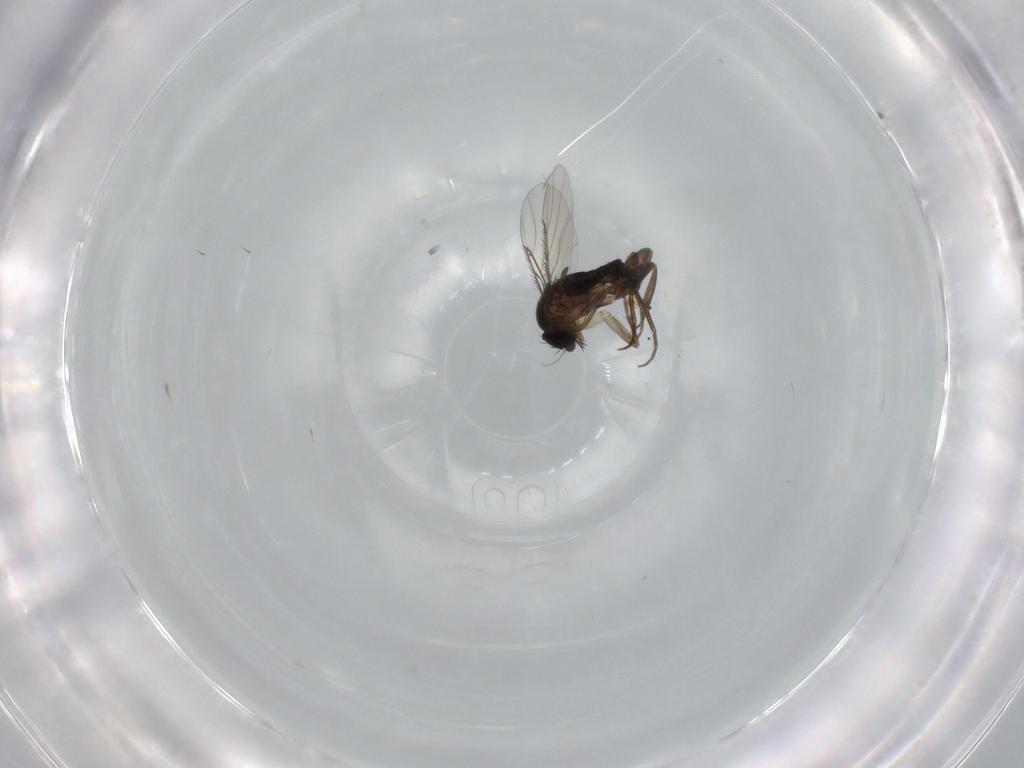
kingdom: Animalia
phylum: Arthropoda
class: Insecta
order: Diptera
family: Phoridae
